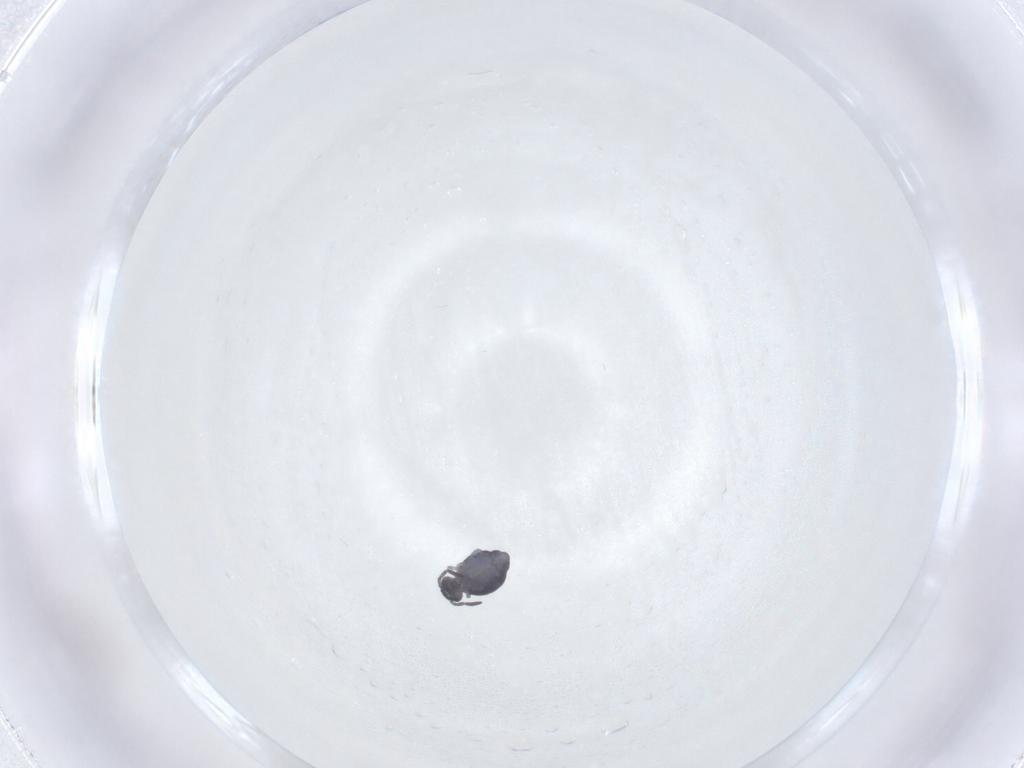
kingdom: Animalia
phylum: Arthropoda
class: Collembola
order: Symphypleona
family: Katiannidae
